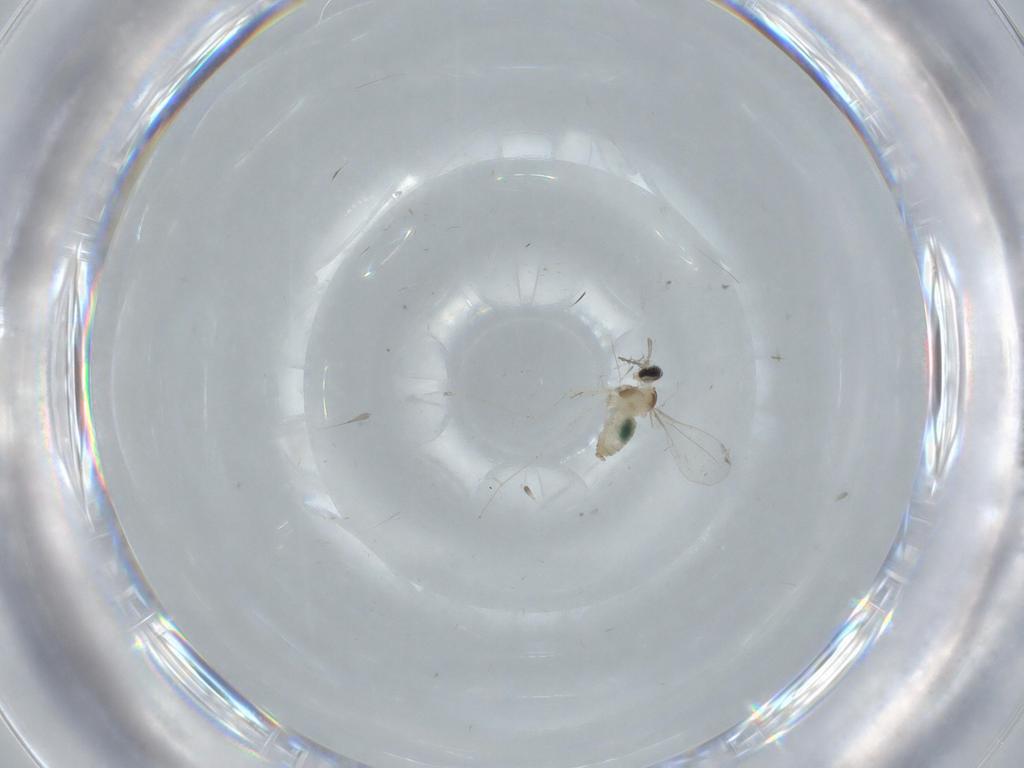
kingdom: Animalia
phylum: Arthropoda
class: Insecta
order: Diptera
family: Cecidomyiidae
